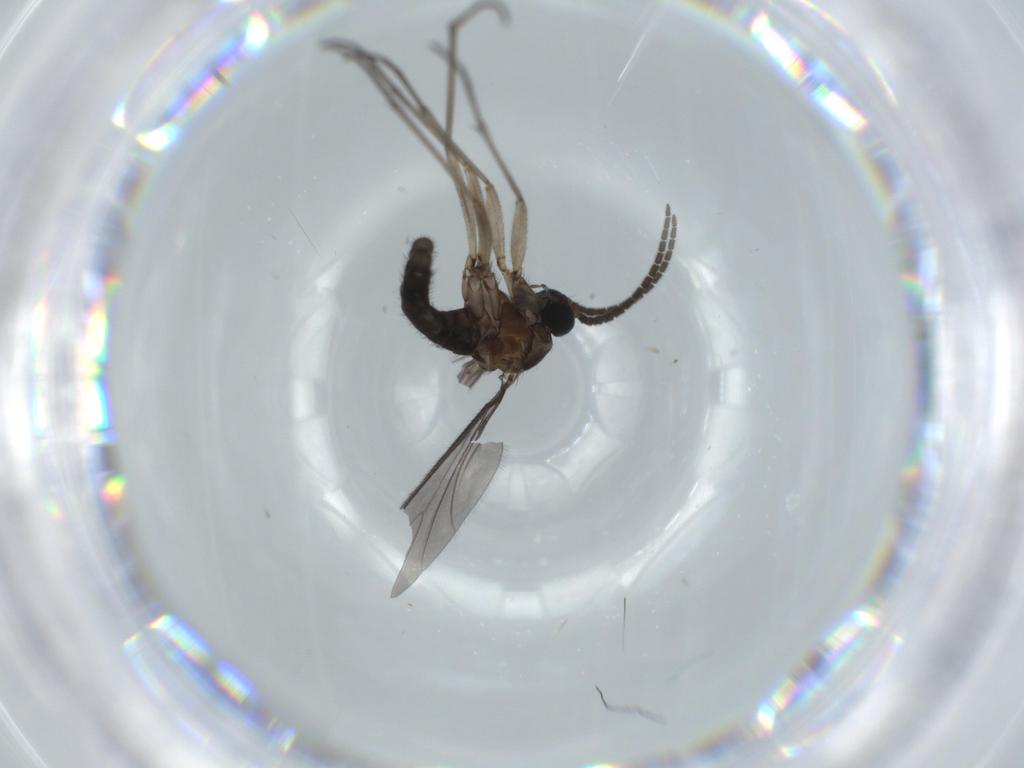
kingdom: Animalia
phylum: Arthropoda
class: Insecta
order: Diptera
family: Sciaridae
